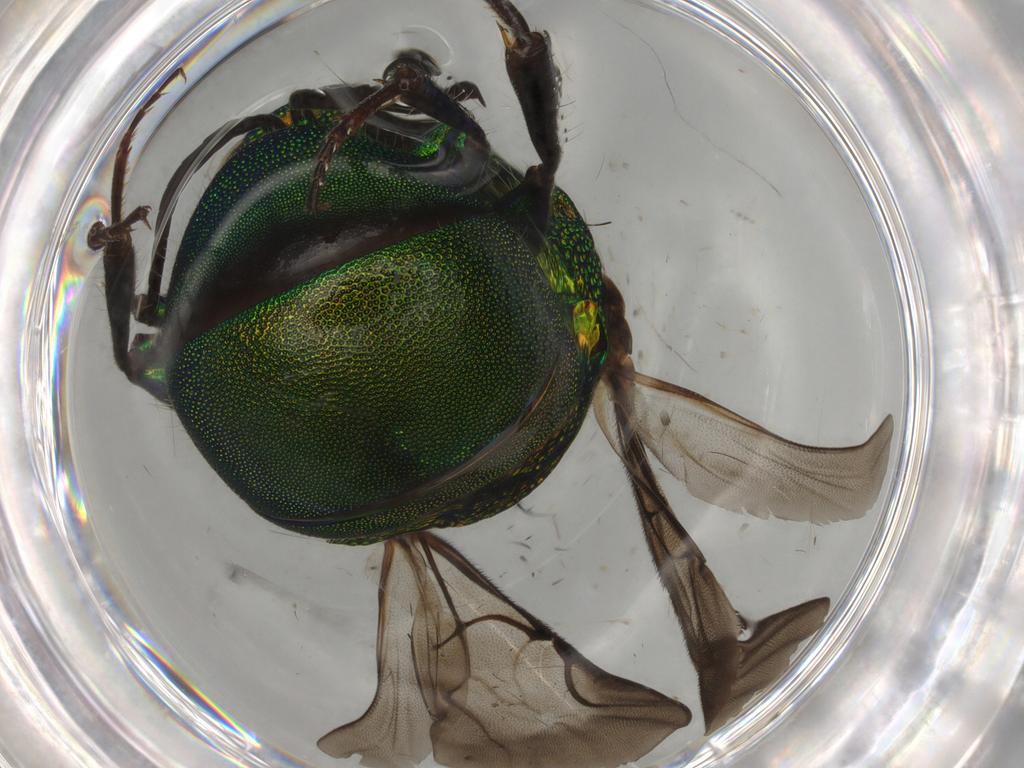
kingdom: Animalia
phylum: Arthropoda
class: Insecta
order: Hymenoptera
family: Chrysididae
